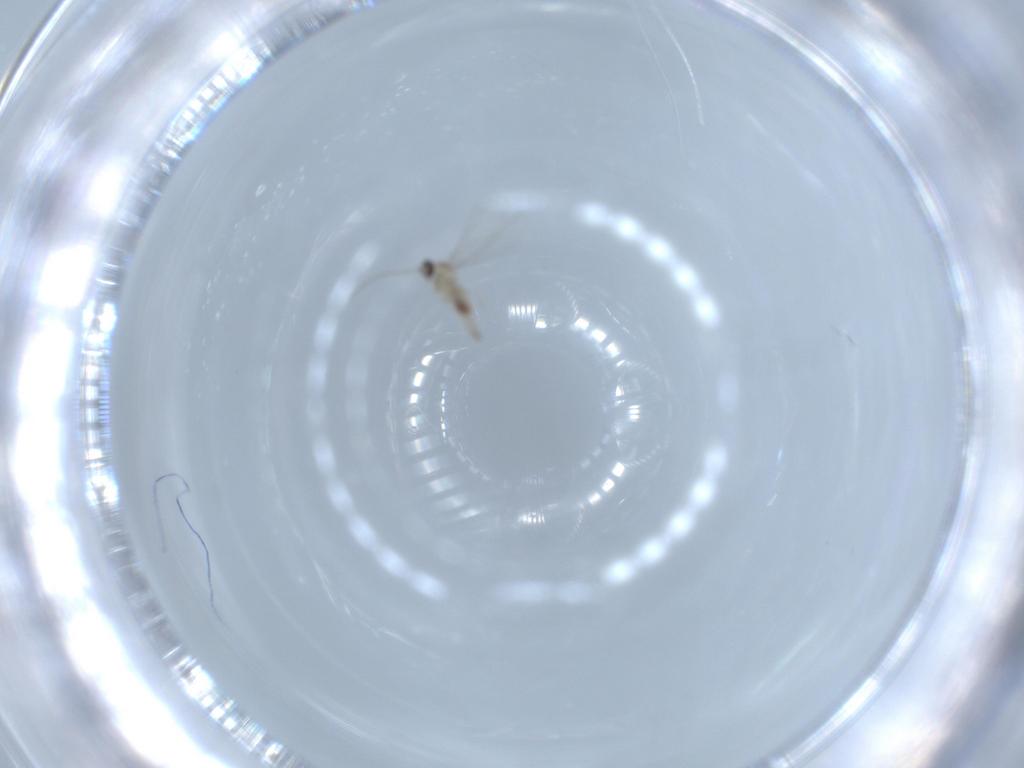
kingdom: Animalia
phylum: Arthropoda
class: Insecta
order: Diptera
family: Cecidomyiidae
